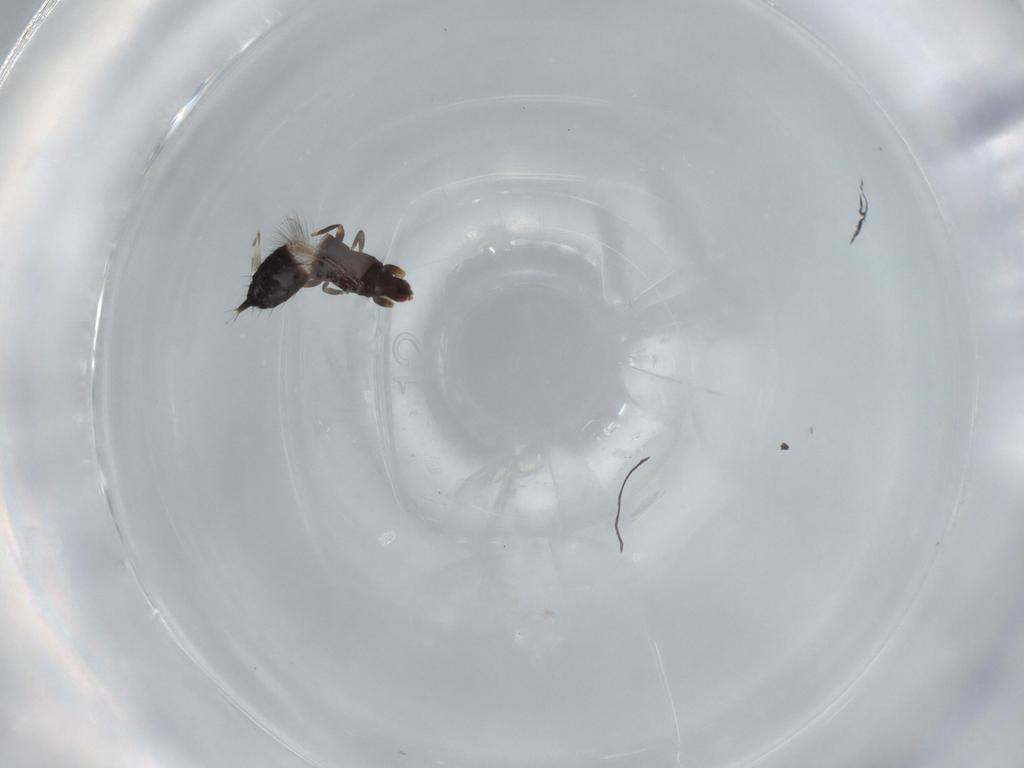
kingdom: Animalia
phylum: Arthropoda
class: Insecta
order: Thysanoptera
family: Phlaeothripidae
